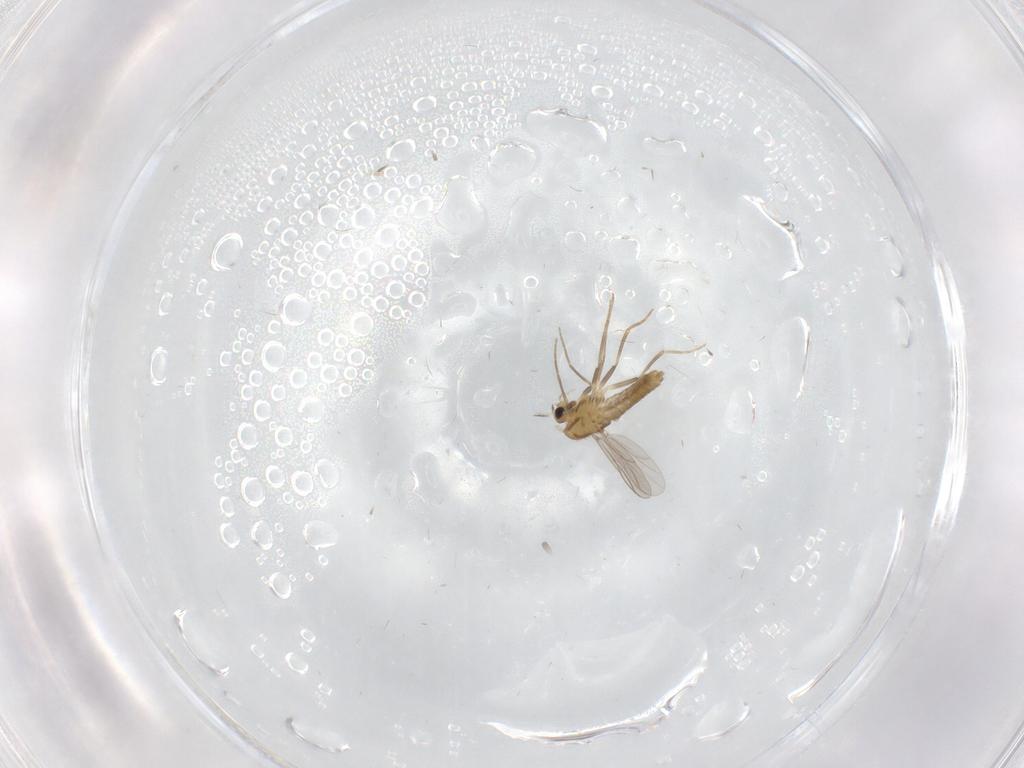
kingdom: Animalia
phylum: Arthropoda
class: Insecta
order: Diptera
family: Chironomidae
